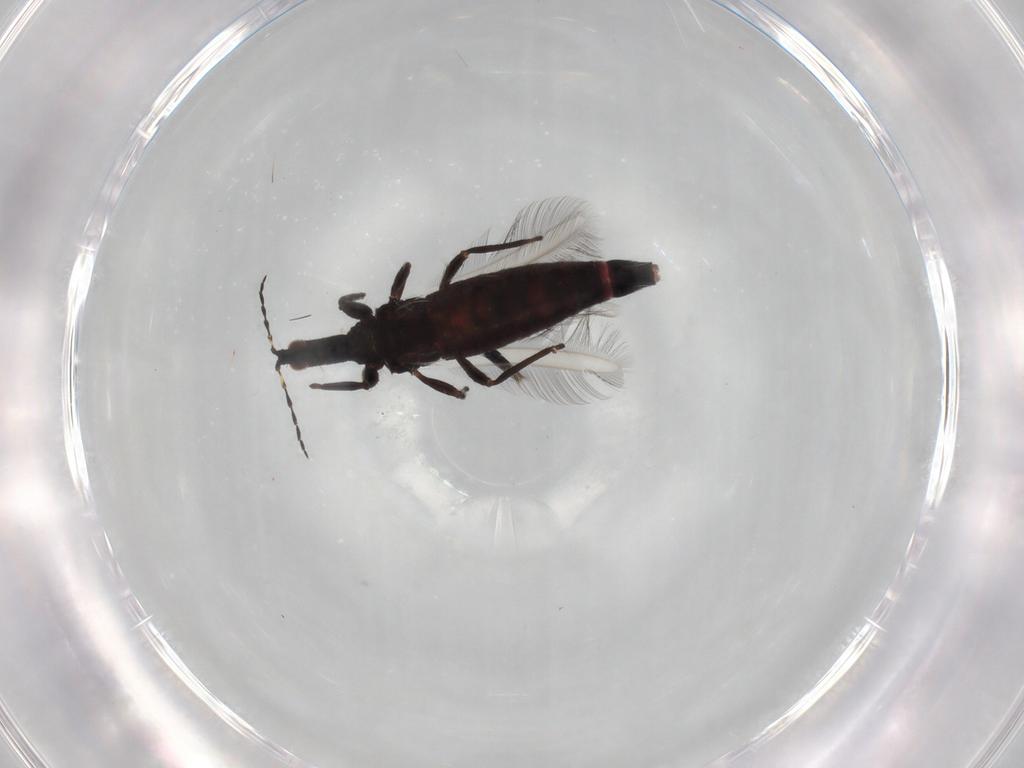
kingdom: Animalia
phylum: Arthropoda
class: Insecta
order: Thysanoptera
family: Phlaeothripidae
